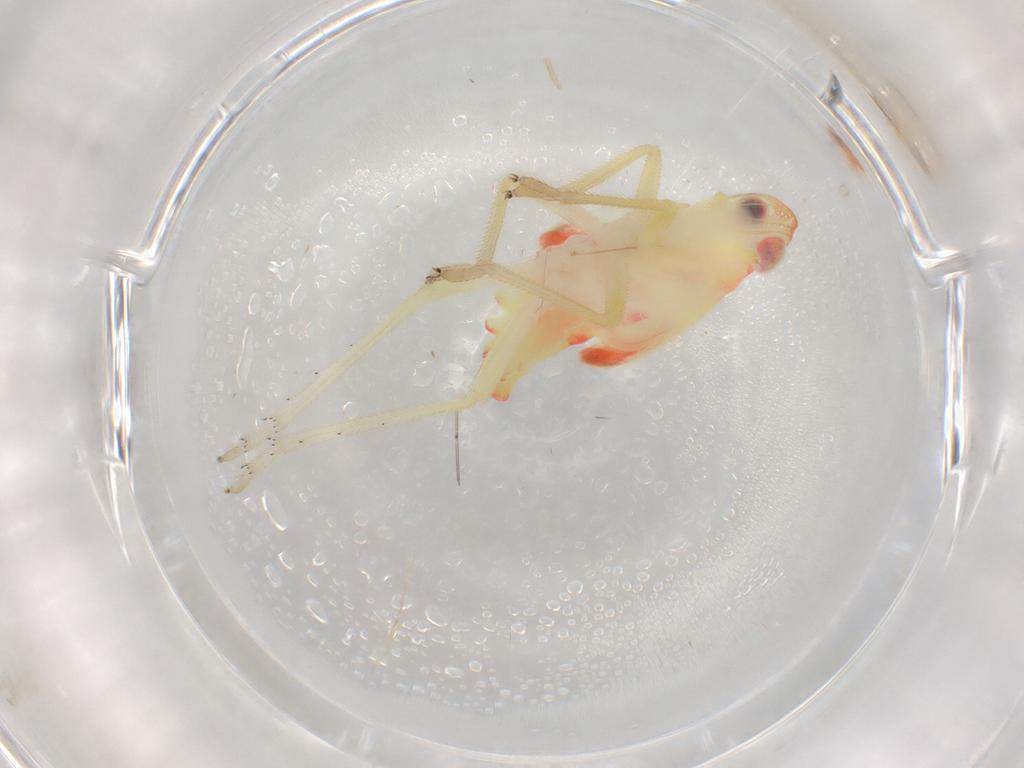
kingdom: Animalia
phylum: Arthropoda
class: Insecta
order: Hemiptera
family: Tropiduchidae
